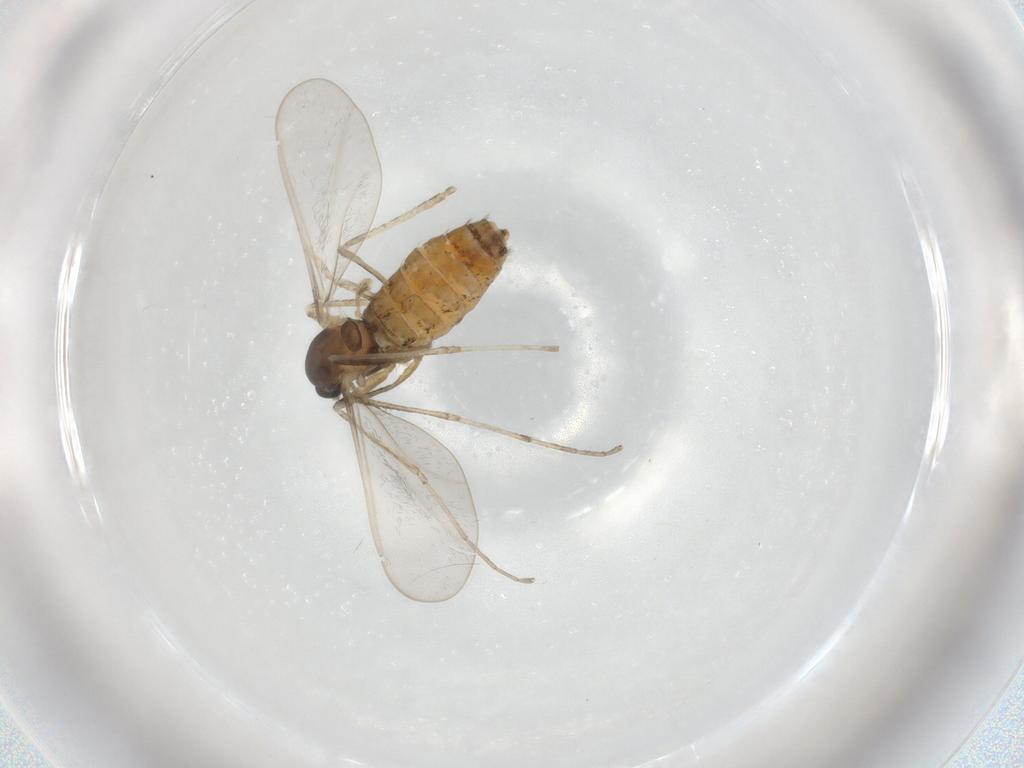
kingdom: Animalia
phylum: Arthropoda
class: Insecta
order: Diptera
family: Cecidomyiidae
